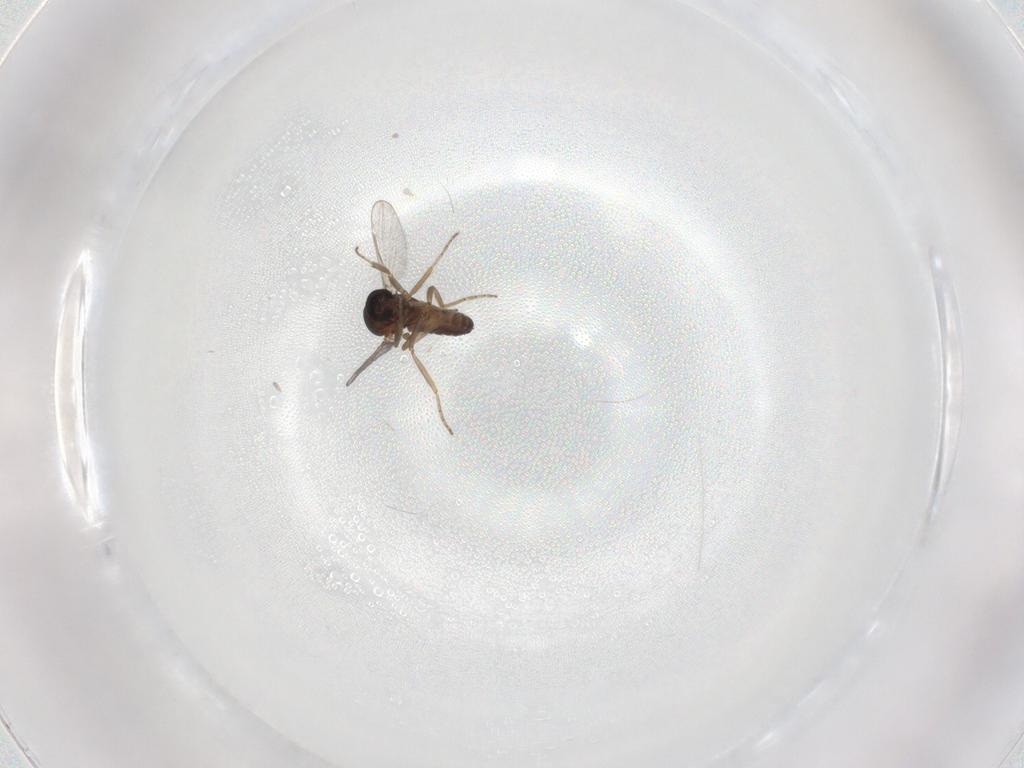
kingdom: Animalia
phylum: Arthropoda
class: Insecta
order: Diptera
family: Ceratopogonidae
